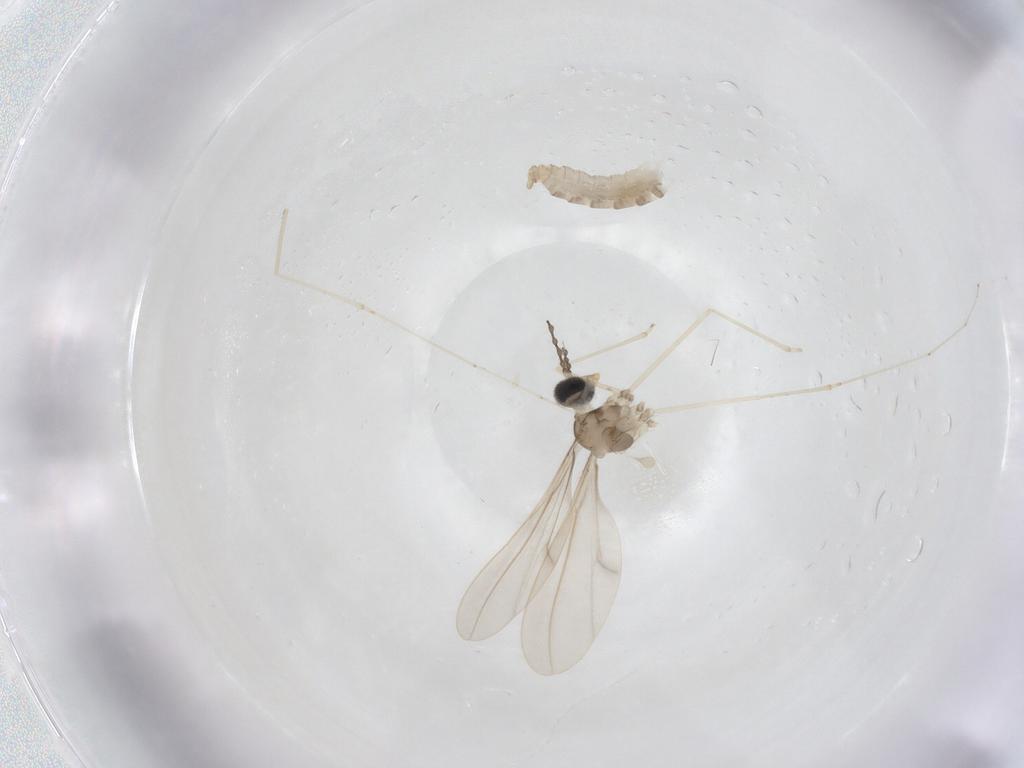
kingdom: Animalia
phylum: Arthropoda
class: Insecta
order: Diptera
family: Cecidomyiidae
